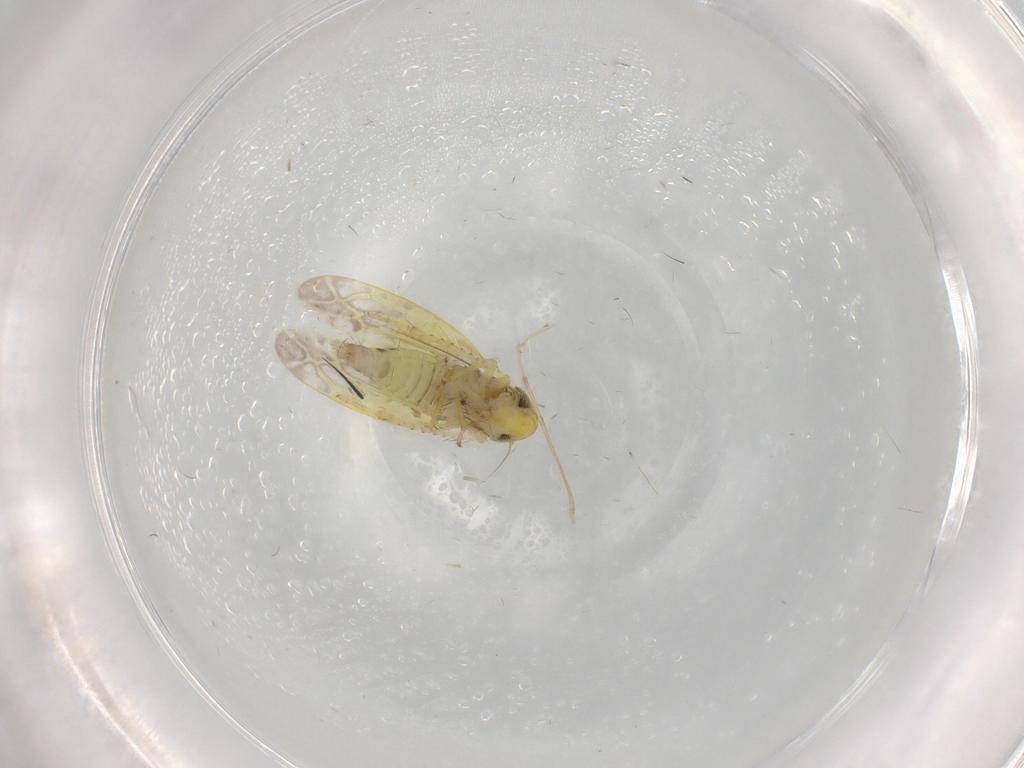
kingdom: Animalia
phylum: Arthropoda
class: Insecta
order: Hemiptera
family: Cicadellidae
